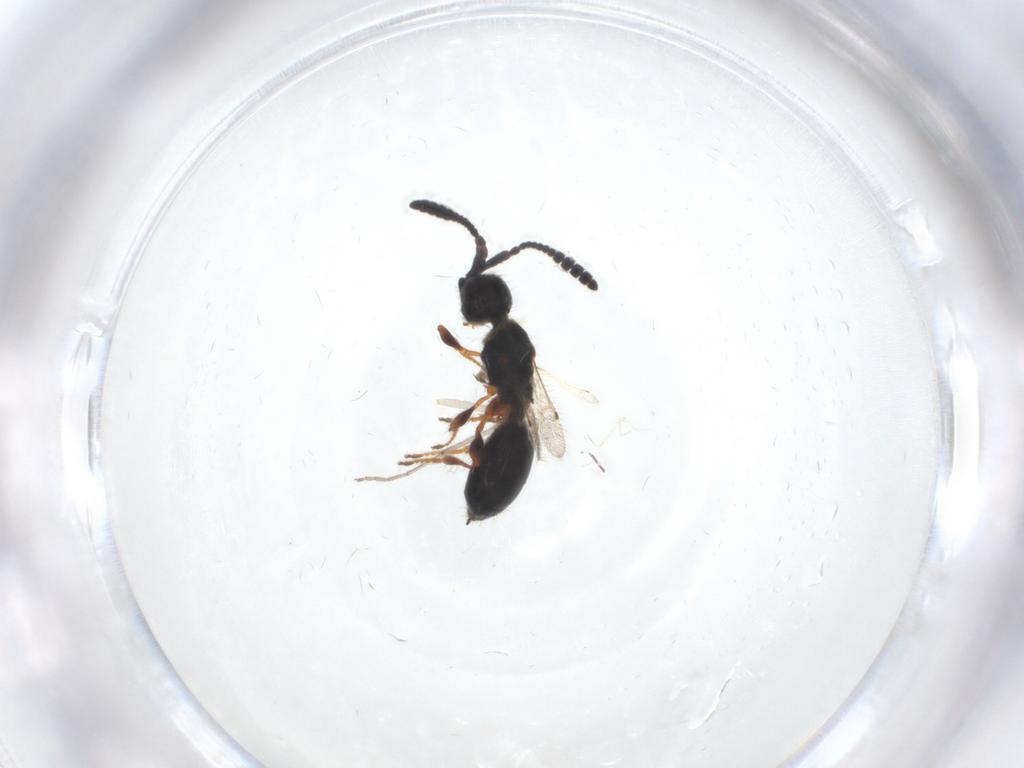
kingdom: Animalia
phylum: Arthropoda
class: Insecta
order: Hymenoptera
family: Diapriidae
